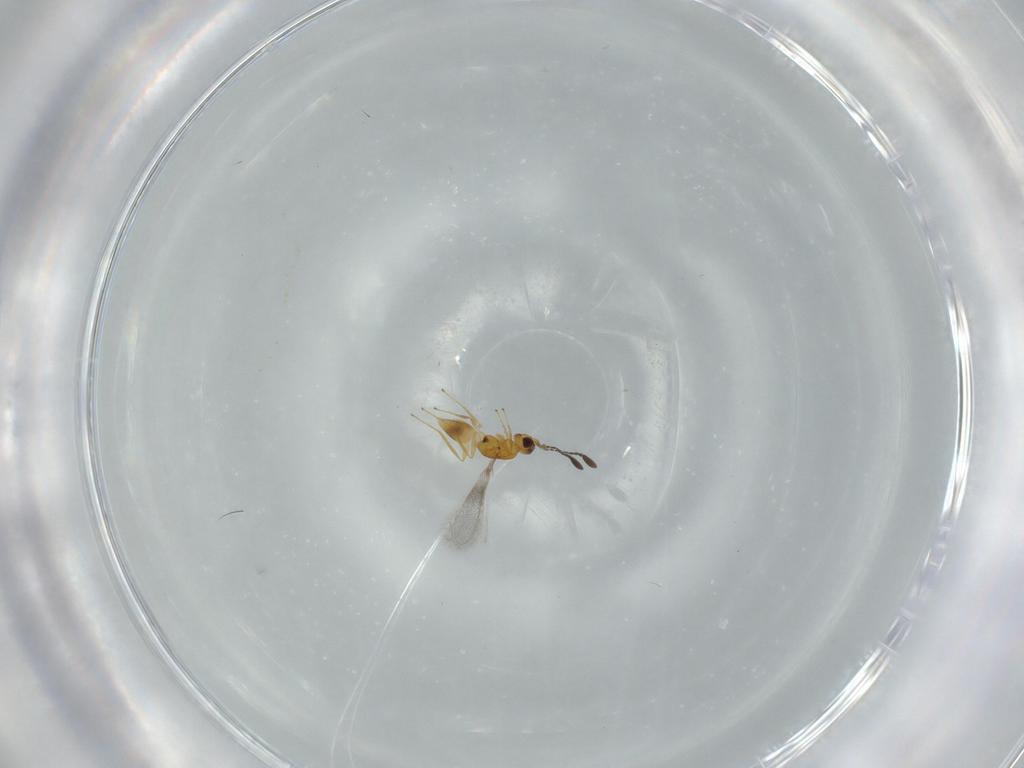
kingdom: Animalia
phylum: Arthropoda
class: Insecta
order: Hymenoptera
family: Mymaridae
